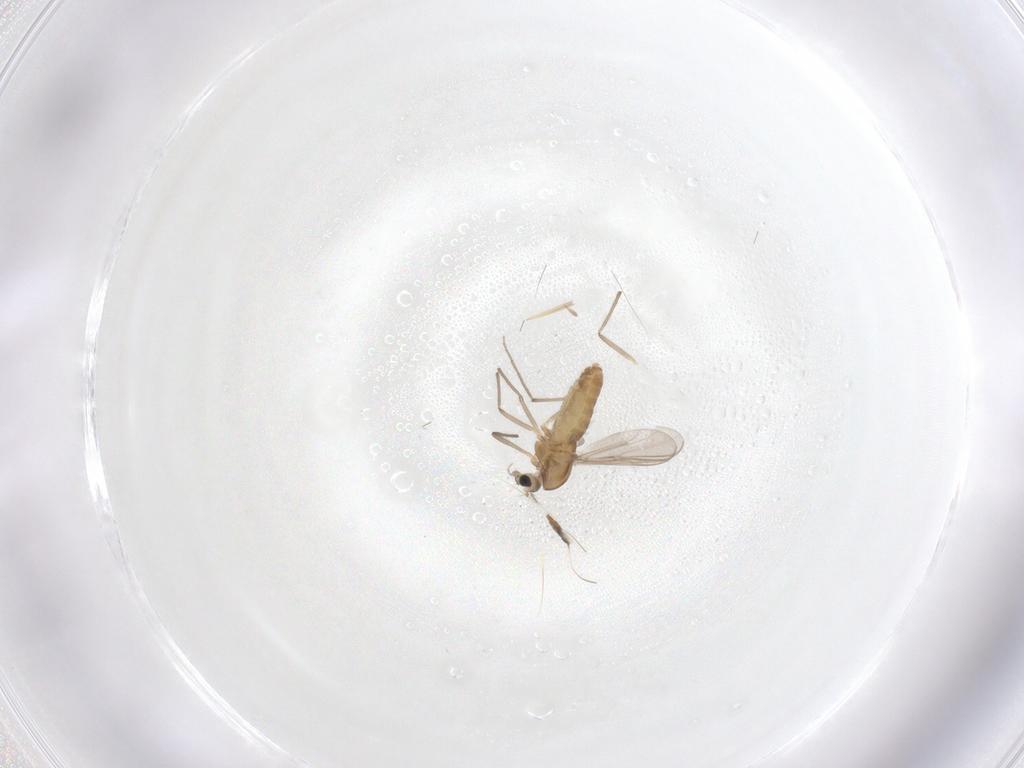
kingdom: Animalia
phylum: Arthropoda
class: Insecta
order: Diptera
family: Chironomidae
